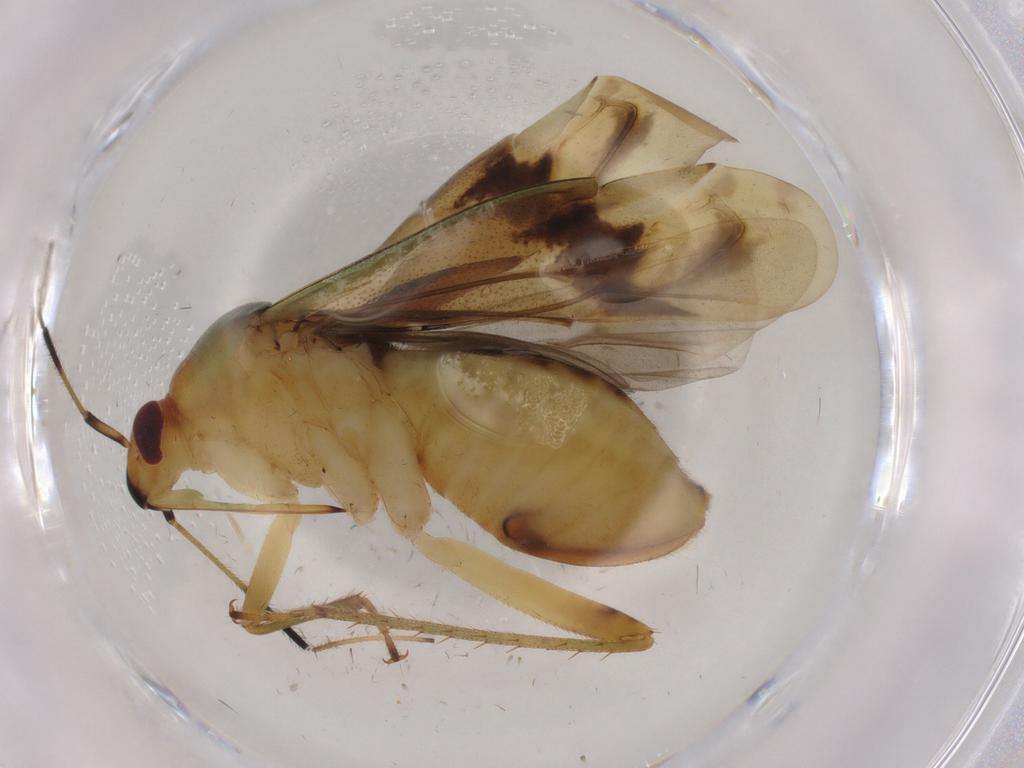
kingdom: Animalia
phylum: Arthropoda
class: Insecta
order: Hemiptera
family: Miridae
